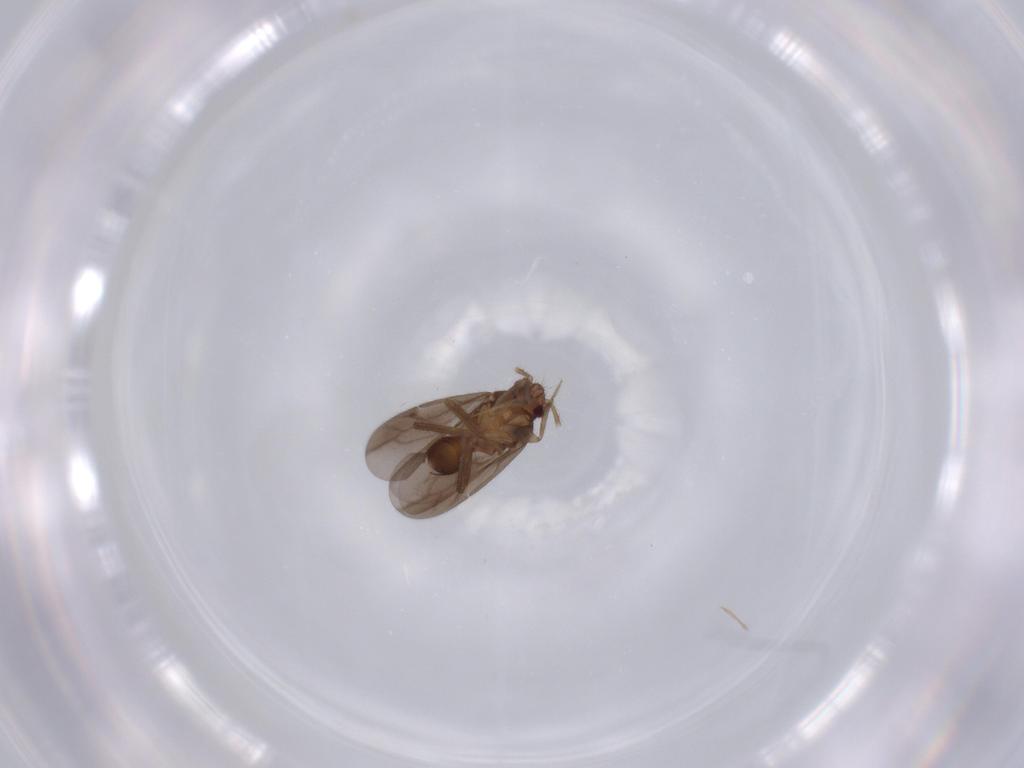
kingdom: Animalia
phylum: Arthropoda
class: Insecta
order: Hemiptera
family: Ceratocombidae
